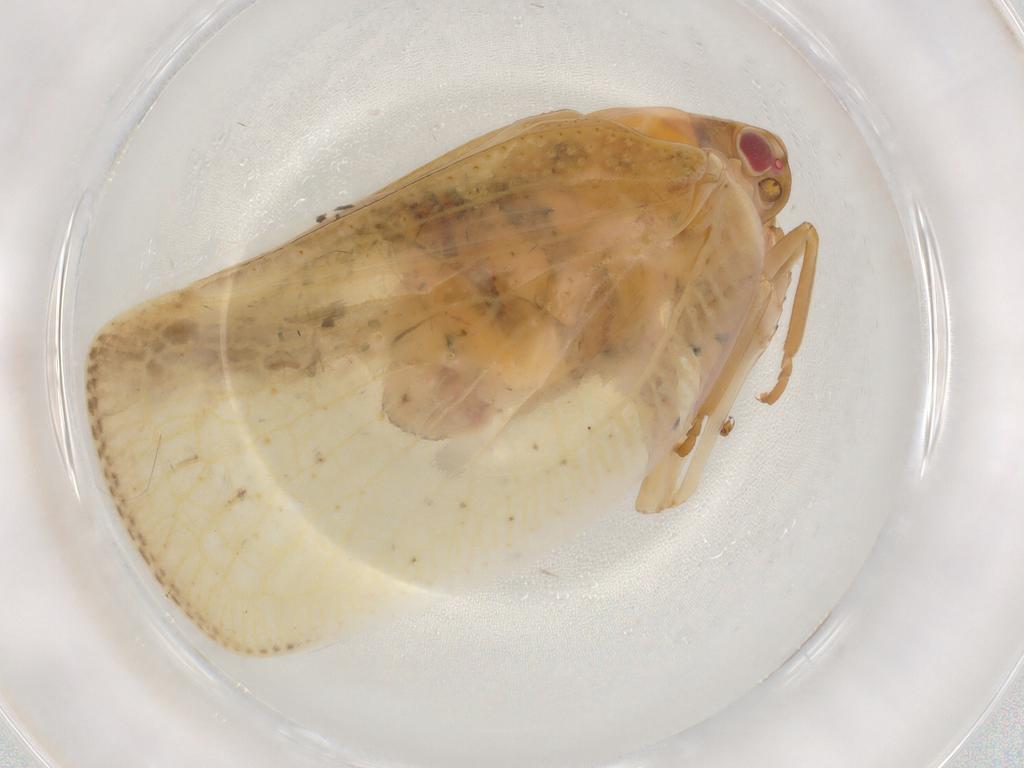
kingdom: Animalia
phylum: Arthropoda
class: Insecta
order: Hemiptera
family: Flatidae
